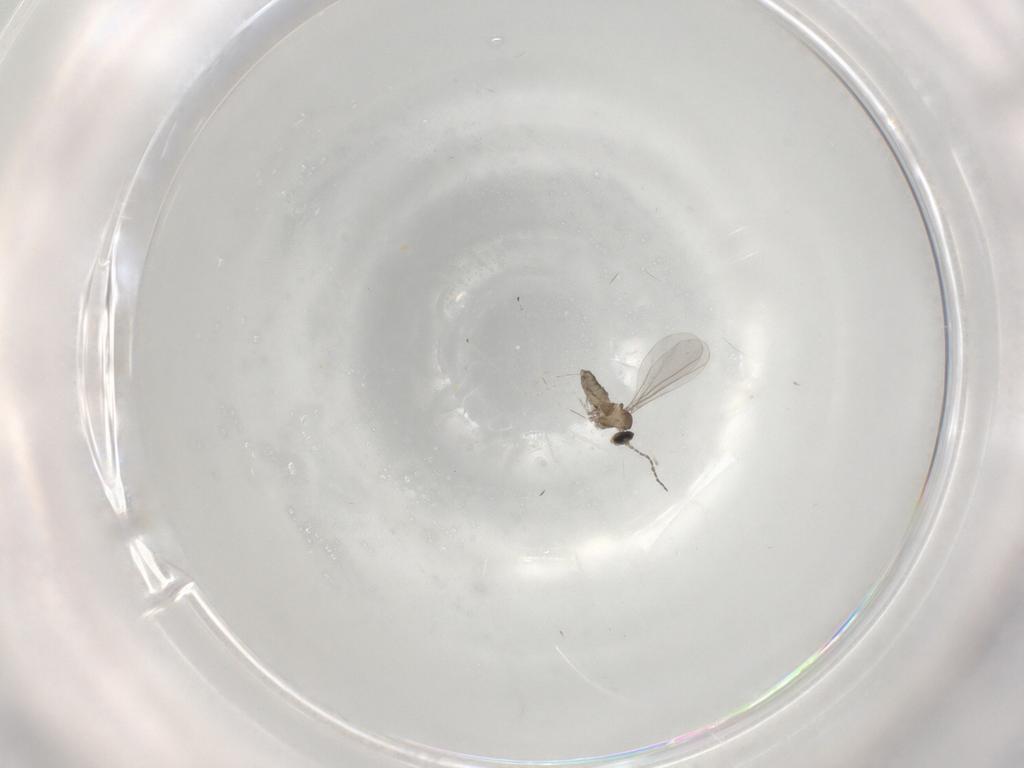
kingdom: Animalia
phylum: Arthropoda
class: Insecta
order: Diptera
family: Cecidomyiidae
